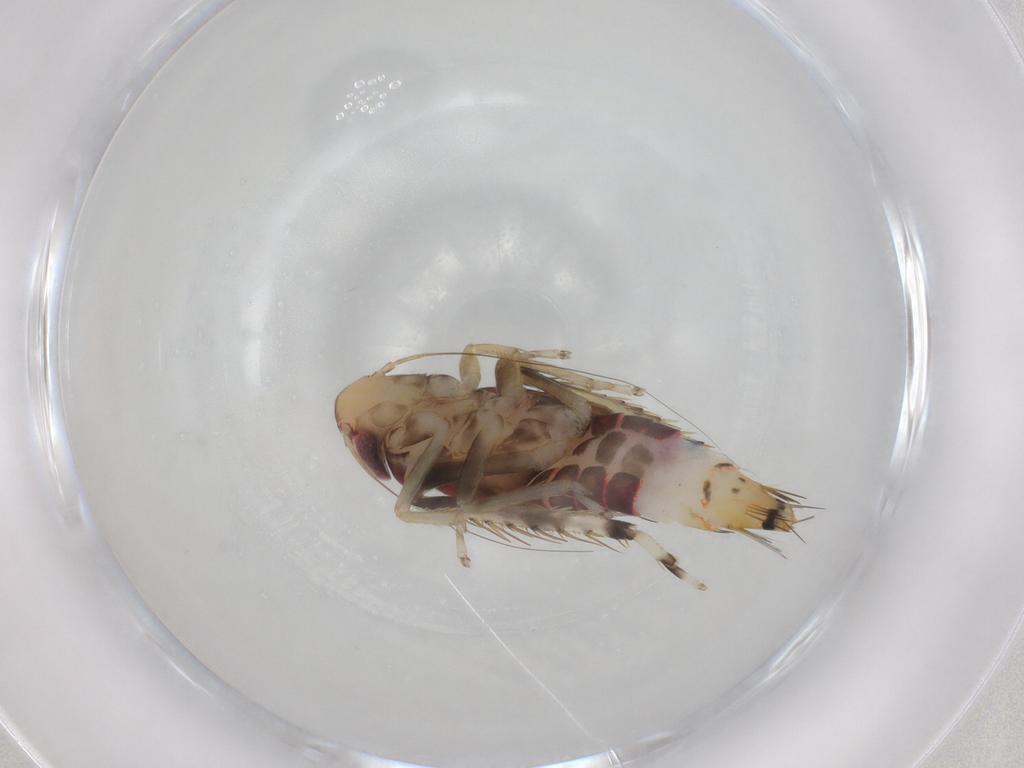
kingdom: Animalia
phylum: Arthropoda
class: Insecta
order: Hemiptera
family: Cicadellidae
